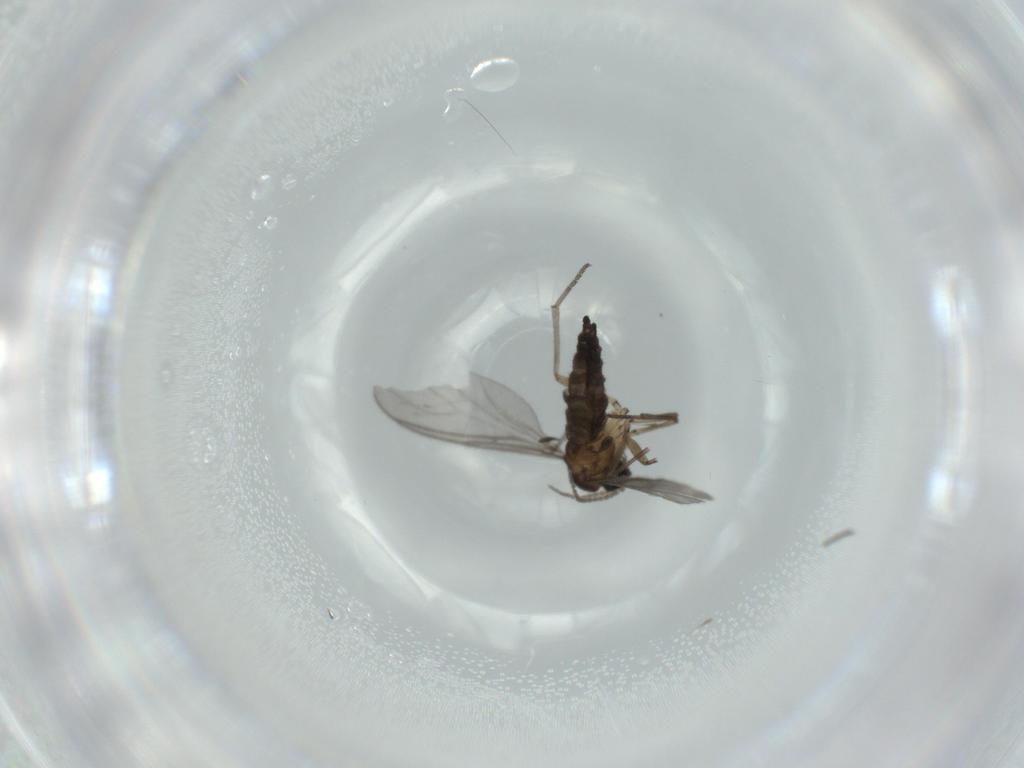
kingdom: Animalia
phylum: Arthropoda
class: Insecta
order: Diptera
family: Sciaridae
